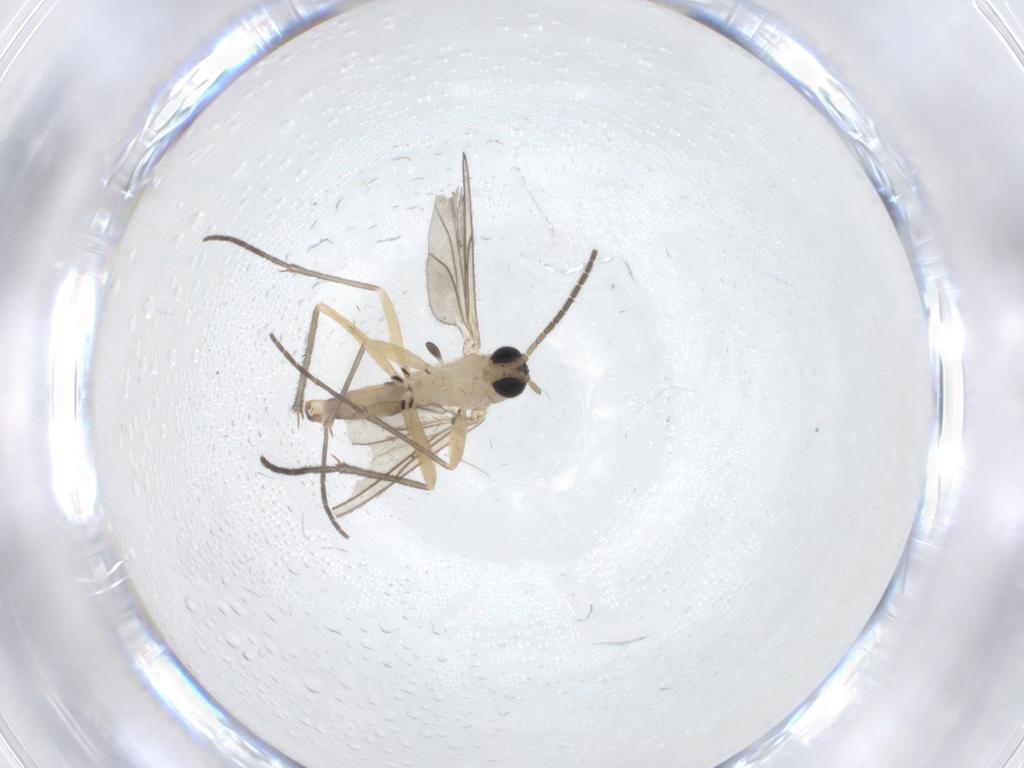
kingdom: Animalia
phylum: Arthropoda
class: Insecta
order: Diptera
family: Sciaridae
